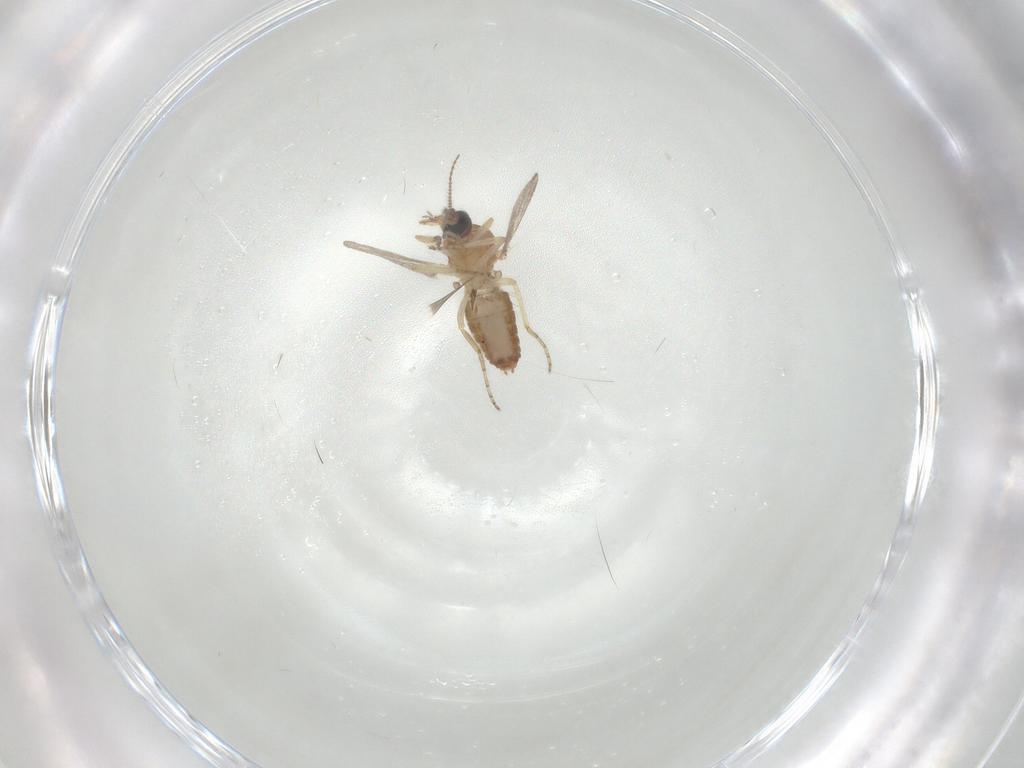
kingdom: Animalia
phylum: Arthropoda
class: Insecta
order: Diptera
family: Ceratopogonidae
